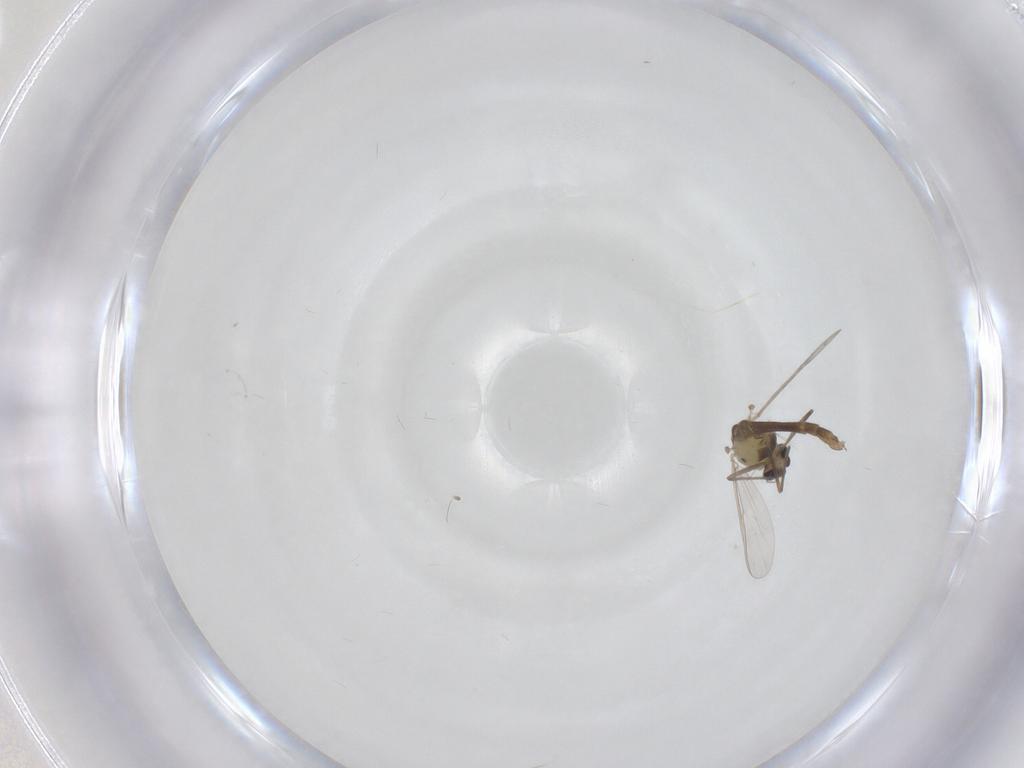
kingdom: Animalia
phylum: Arthropoda
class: Insecta
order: Diptera
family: Chironomidae
